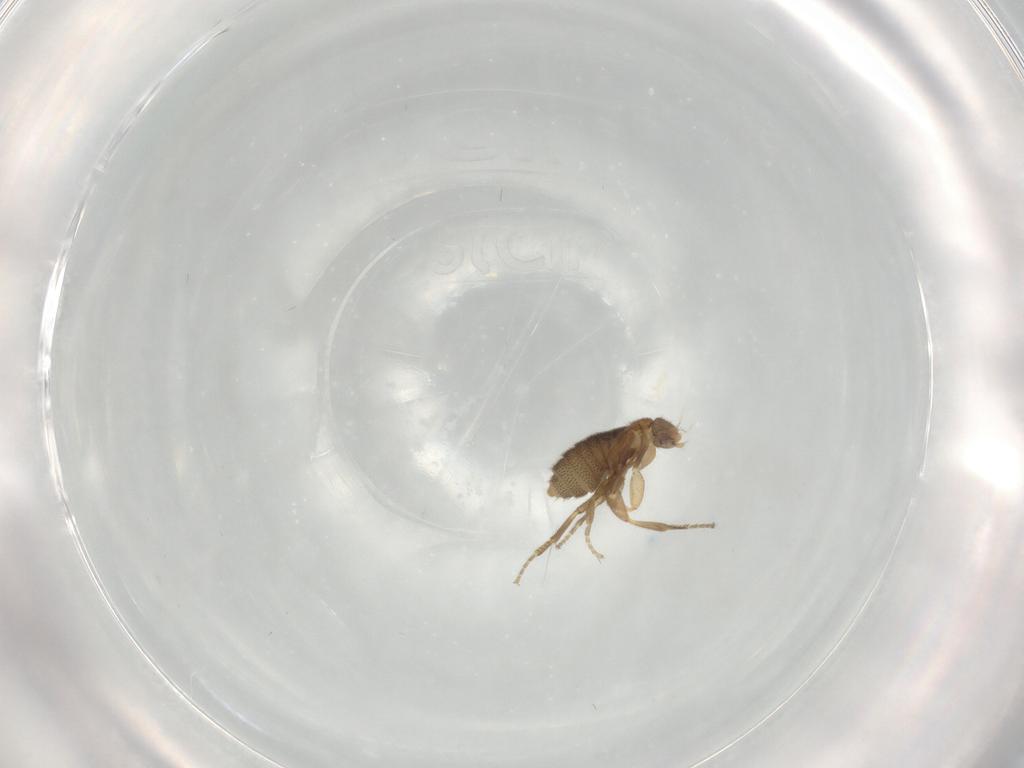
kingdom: Animalia
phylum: Arthropoda
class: Insecta
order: Diptera
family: Phoridae
